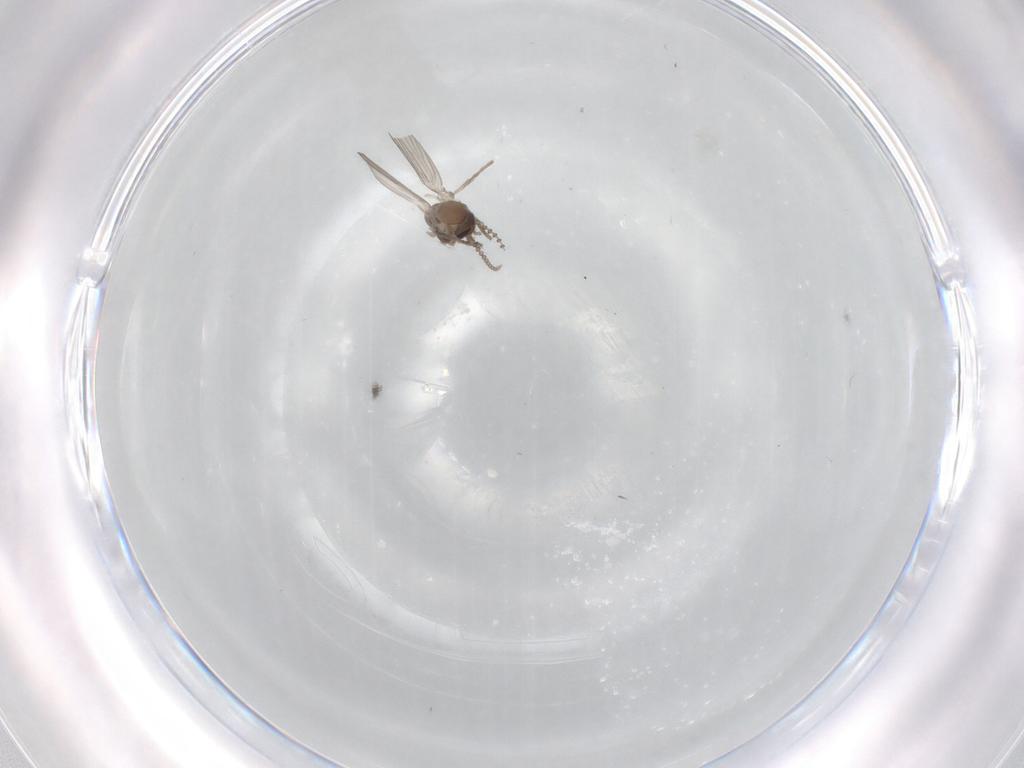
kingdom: Animalia
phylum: Arthropoda
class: Insecta
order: Diptera
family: Psychodidae
